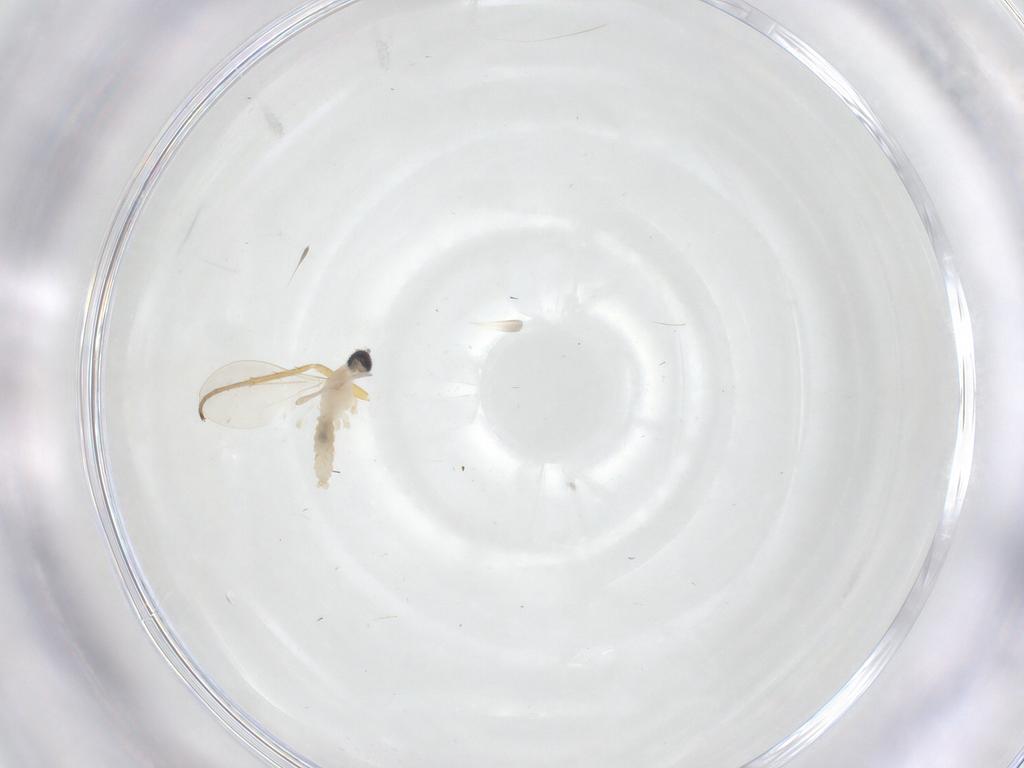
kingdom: Animalia
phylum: Arthropoda
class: Insecta
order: Diptera
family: Cecidomyiidae
